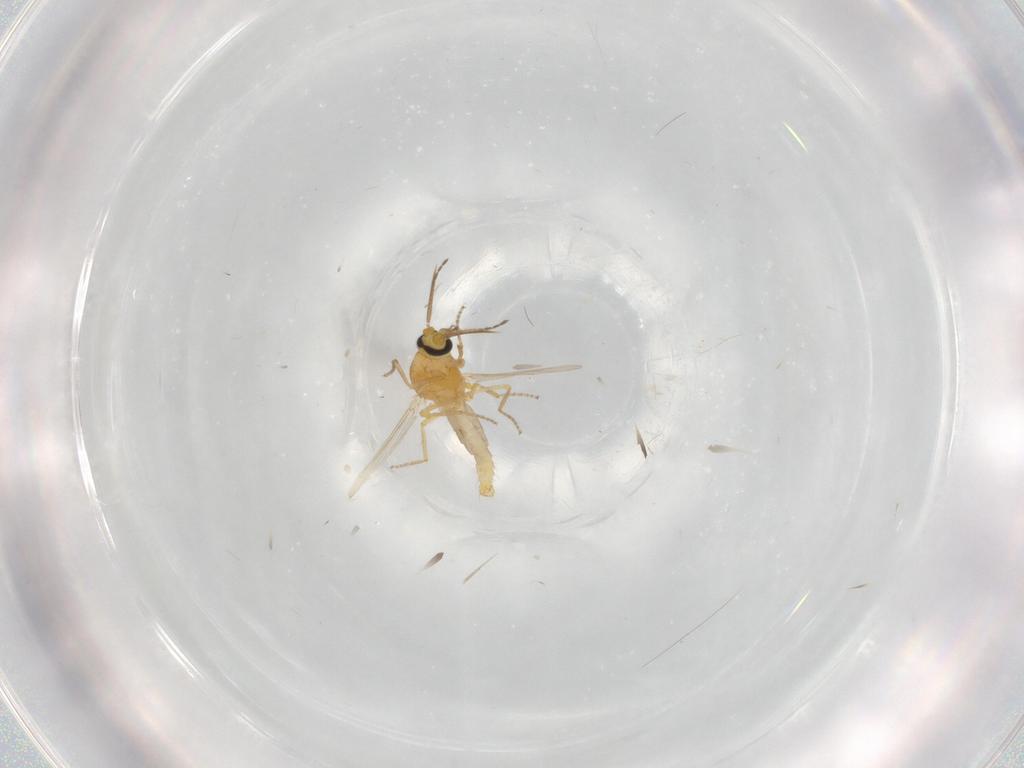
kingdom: Animalia
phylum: Arthropoda
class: Insecta
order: Diptera
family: Ceratopogonidae
